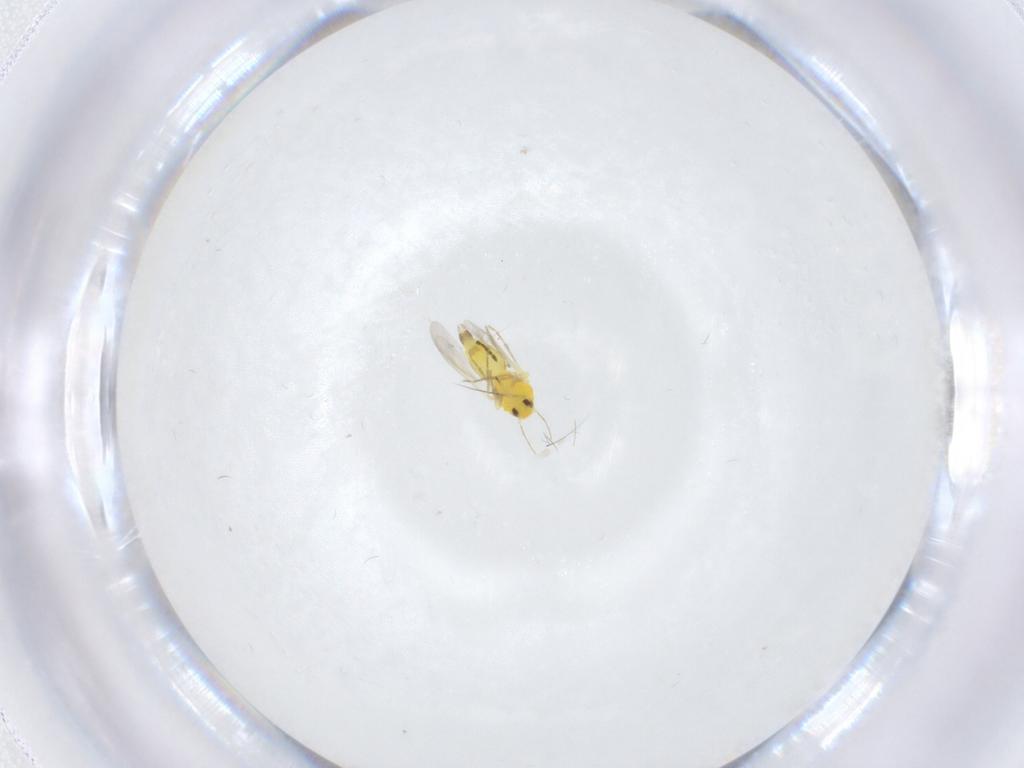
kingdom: Animalia
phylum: Arthropoda
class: Insecta
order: Hemiptera
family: Aleyrodidae
